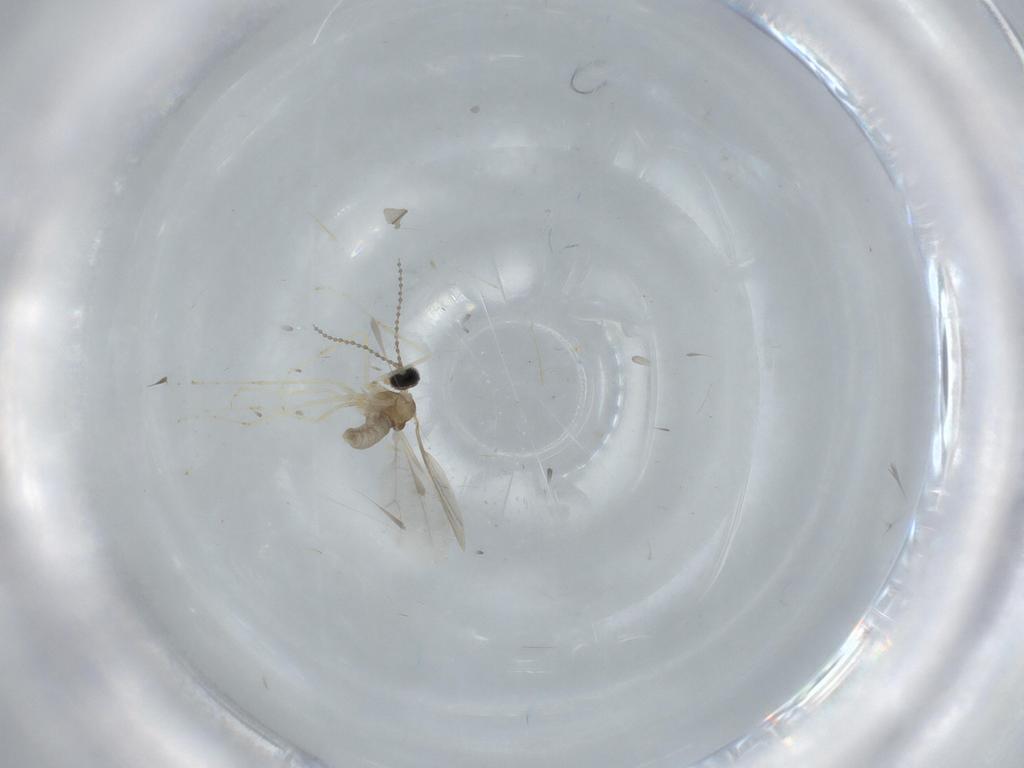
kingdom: Animalia
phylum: Arthropoda
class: Insecta
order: Diptera
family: Cecidomyiidae
